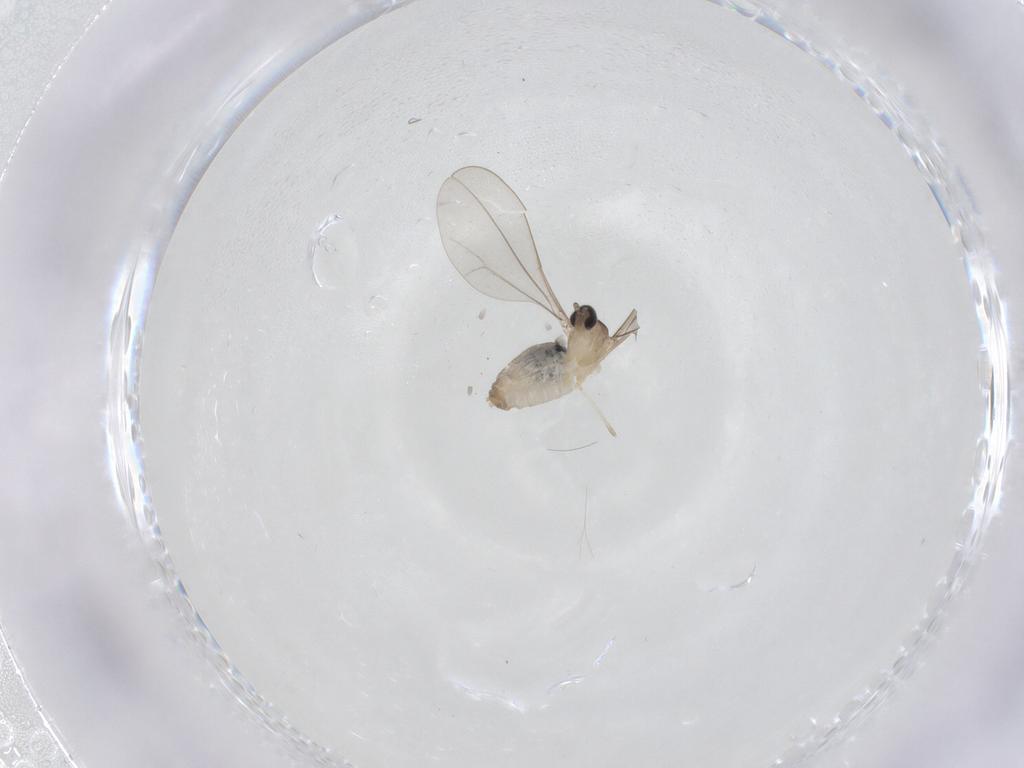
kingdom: Animalia
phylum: Arthropoda
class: Insecta
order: Diptera
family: Cecidomyiidae
